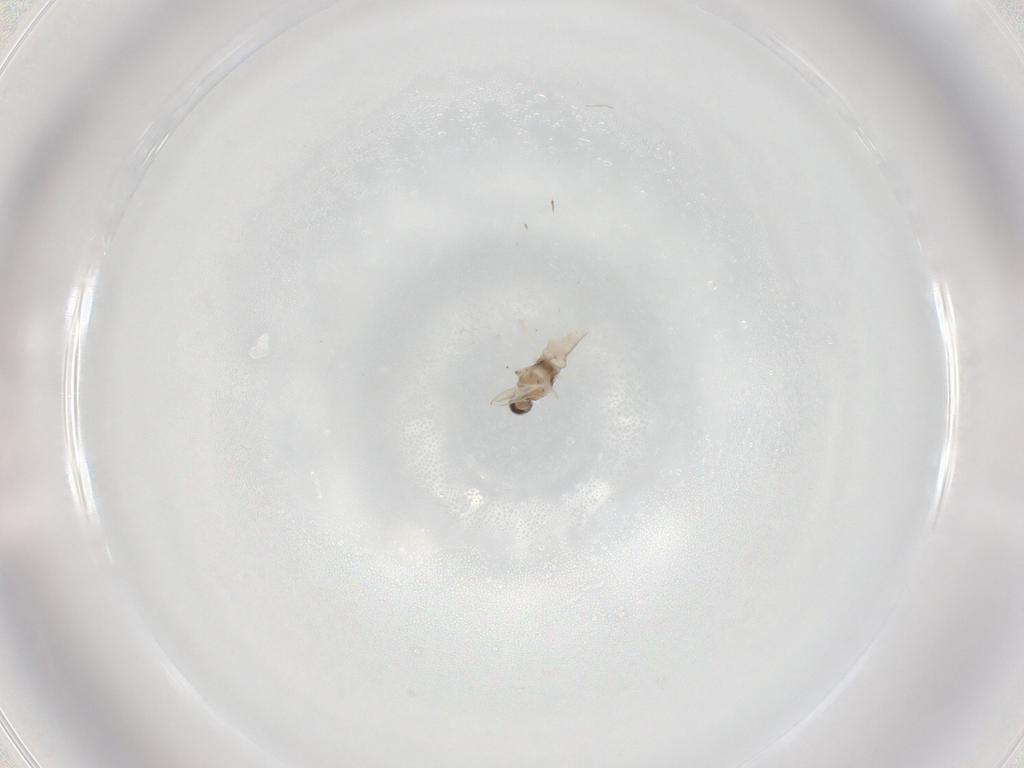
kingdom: Animalia
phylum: Arthropoda
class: Insecta
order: Diptera
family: Cecidomyiidae
